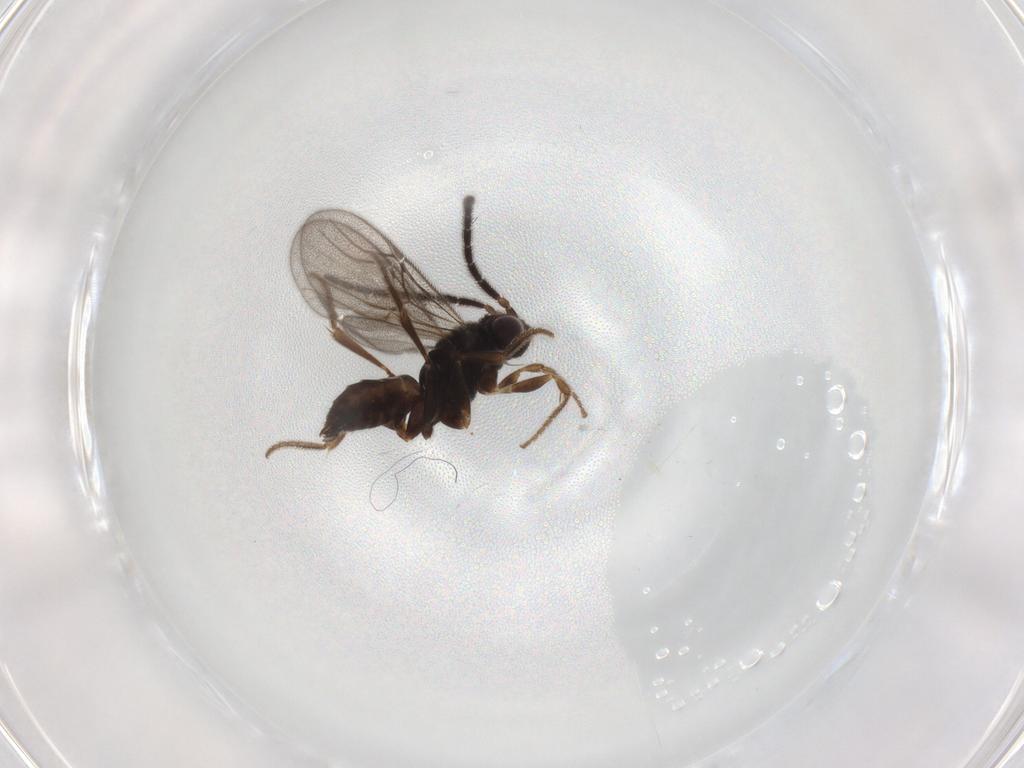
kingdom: Animalia
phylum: Arthropoda
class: Insecta
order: Hymenoptera
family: Dryinidae
